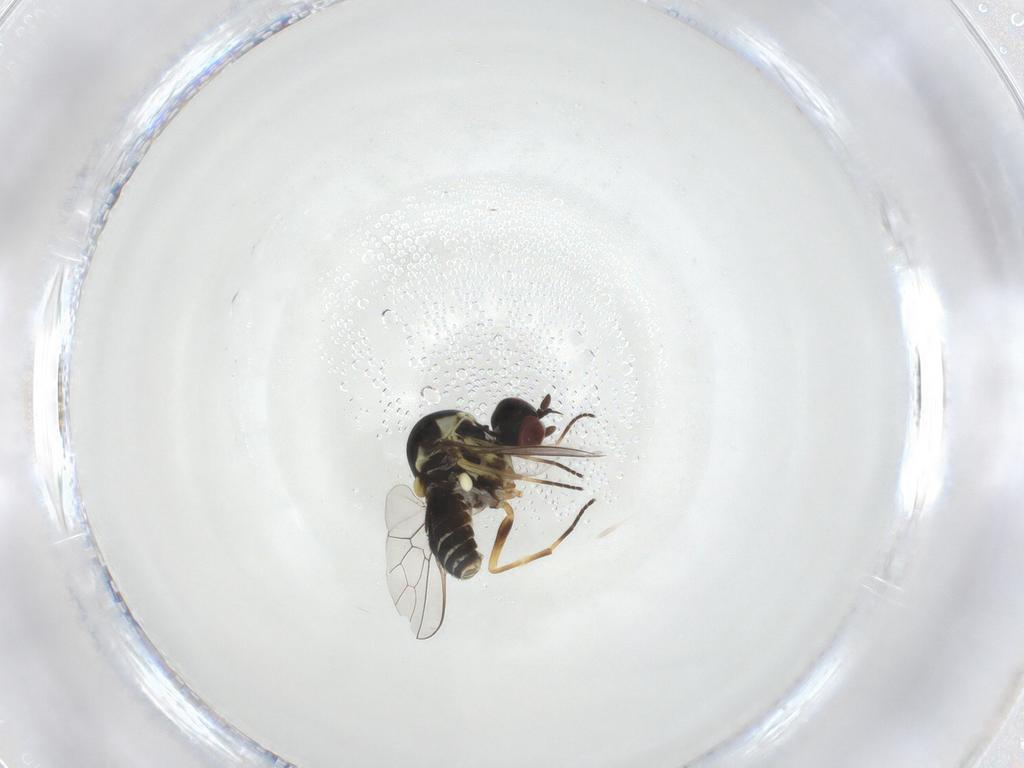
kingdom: Animalia
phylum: Arthropoda
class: Insecta
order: Diptera
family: Bombyliidae
